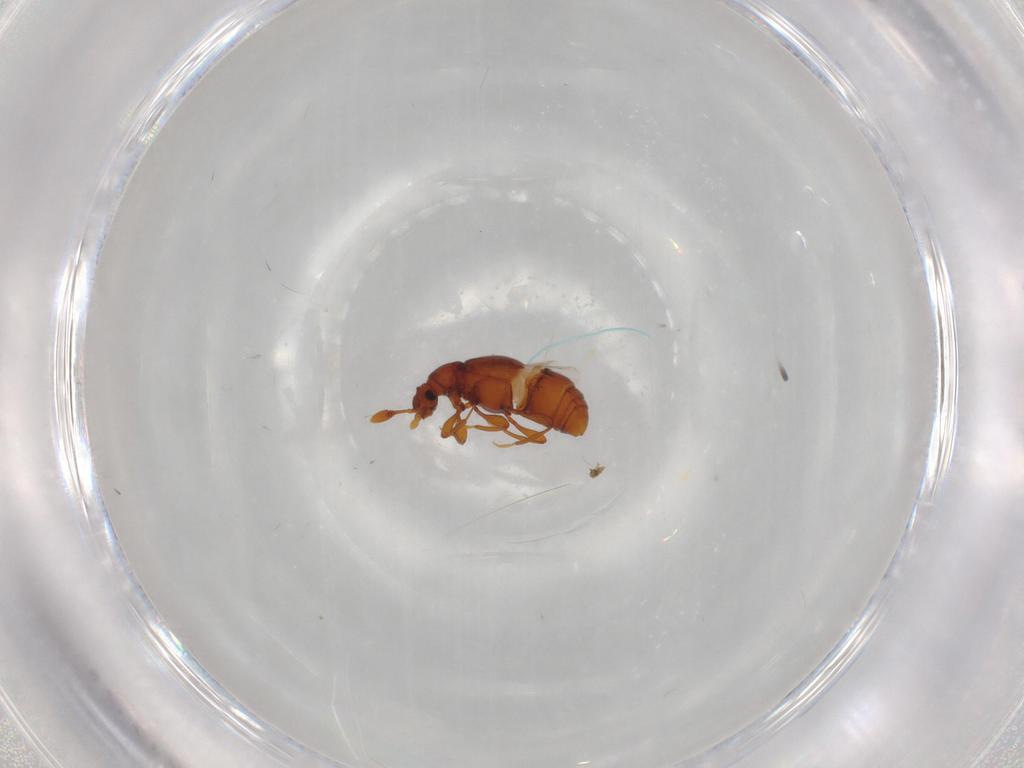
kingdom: Animalia
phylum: Arthropoda
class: Insecta
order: Coleoptera
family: Staphylinidae
